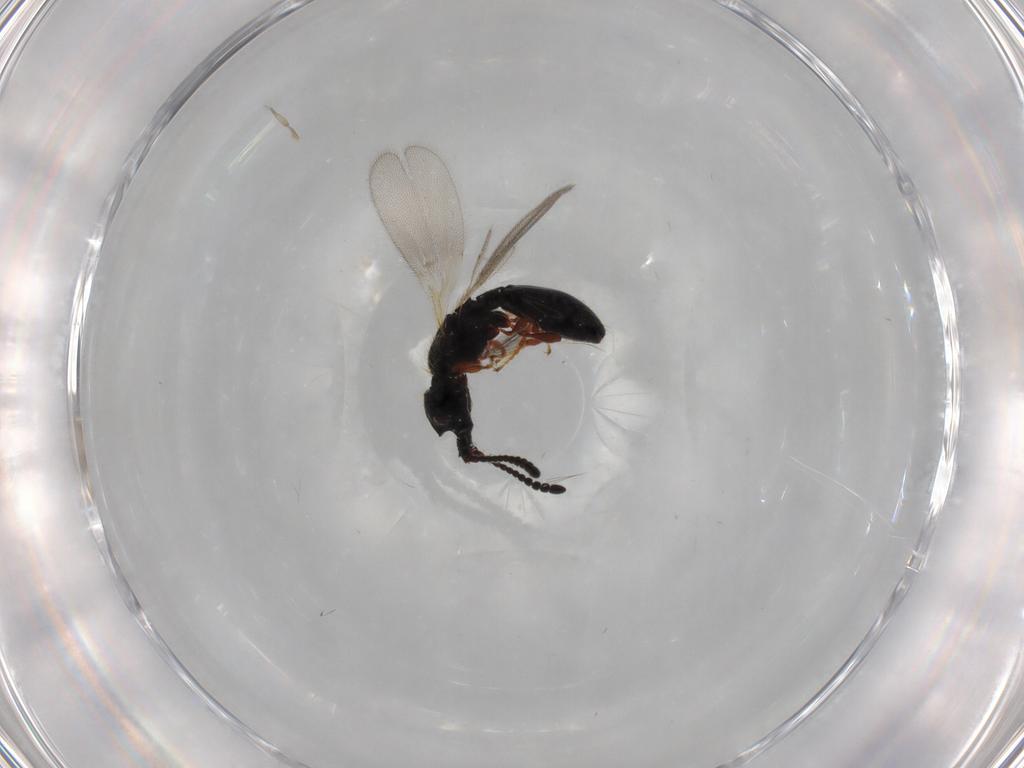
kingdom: Animalia
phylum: Arthropoda
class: Insecta
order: Hymenoptera
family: Diapriidae
